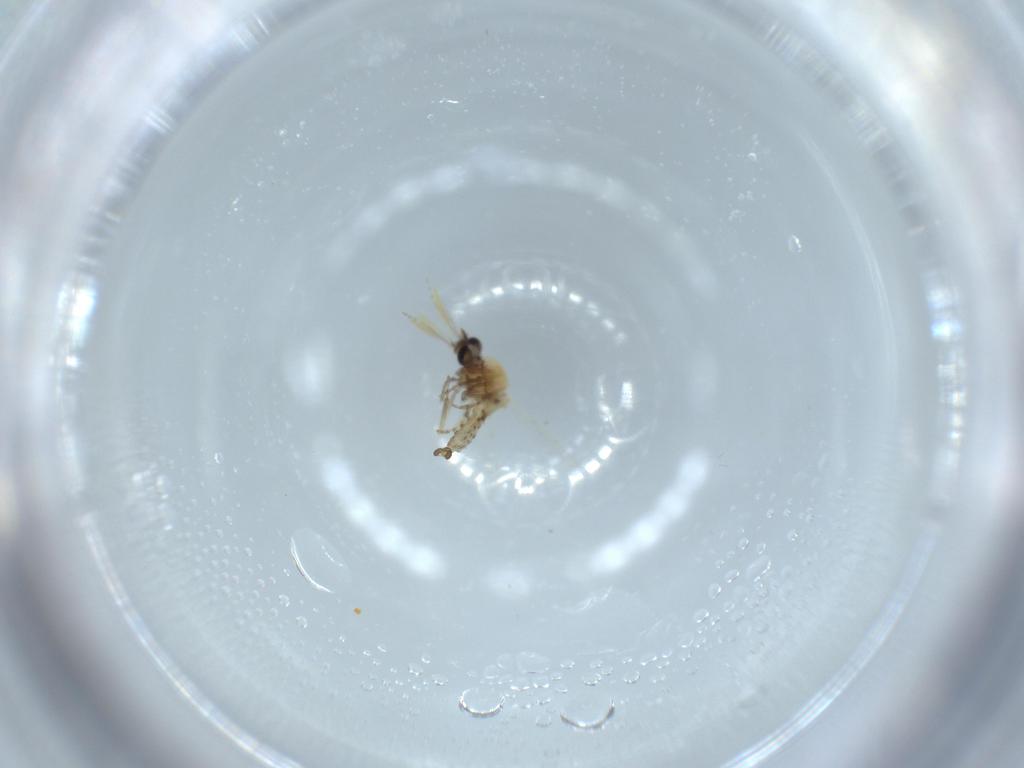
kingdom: Animalia
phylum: Arthropoda
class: Insecta
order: Diptera
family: Ceratopogonidae
